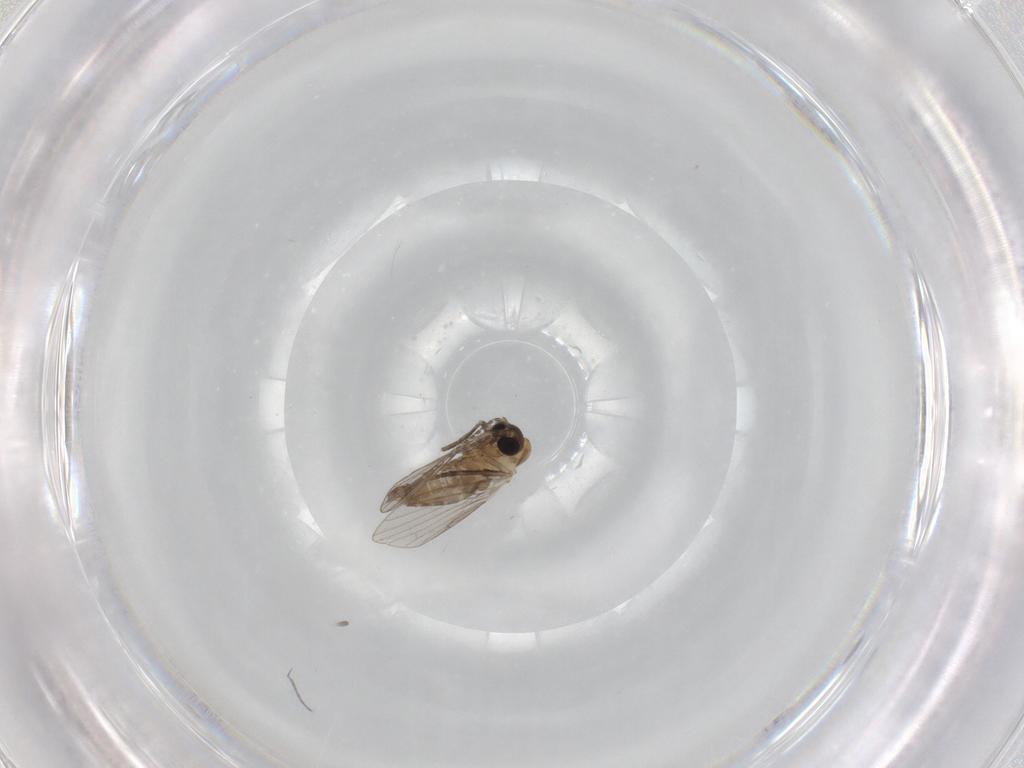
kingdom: Animalia
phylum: Arthropoda
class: Insecta
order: Diptera
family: Psychodidae
